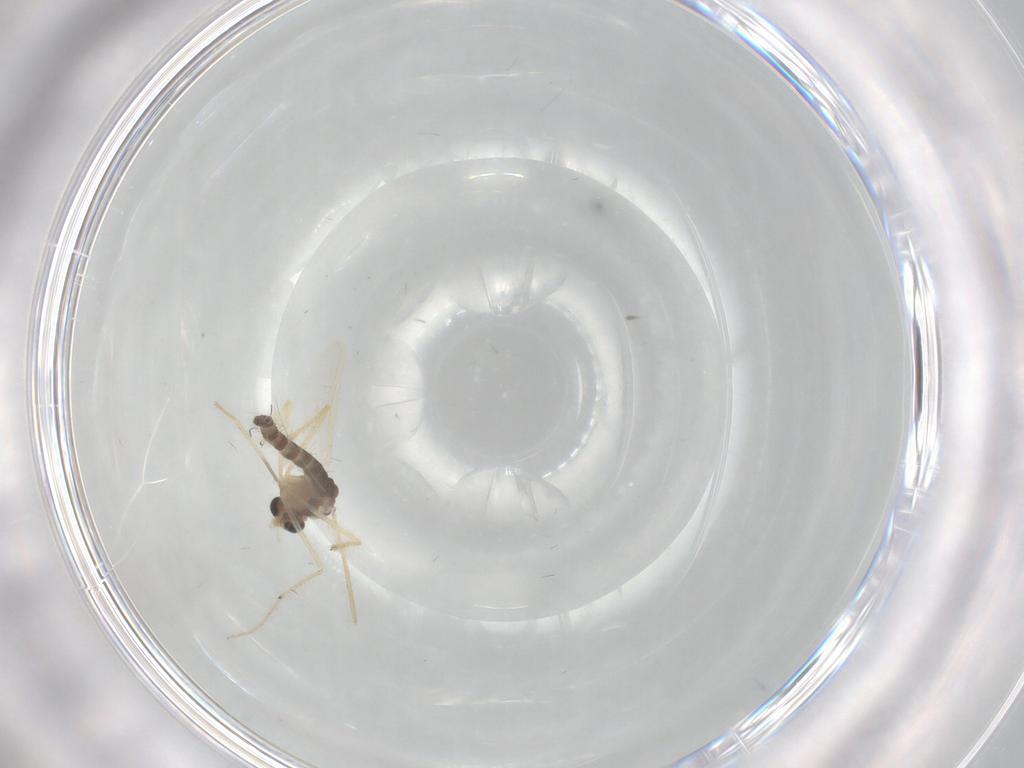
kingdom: Animalia
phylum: Arthropoda
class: Insecta
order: Diptera
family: Chironomidae
